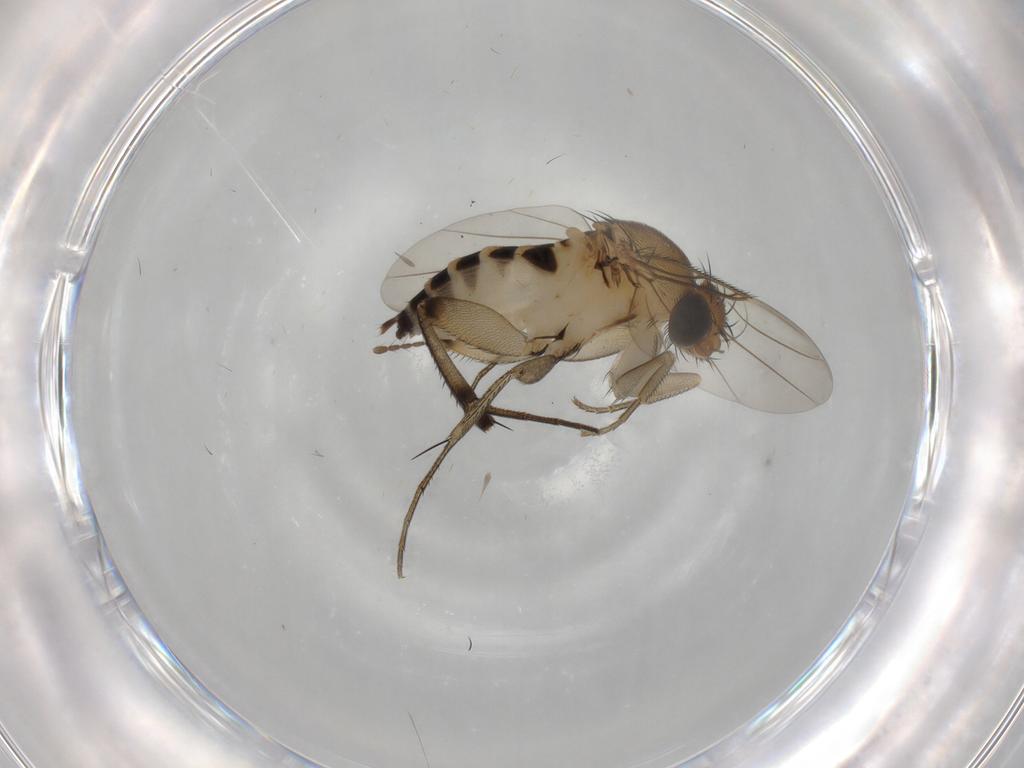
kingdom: Animalia
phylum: Arthropoda
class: Insecta
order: Diptera
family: Phoridae
